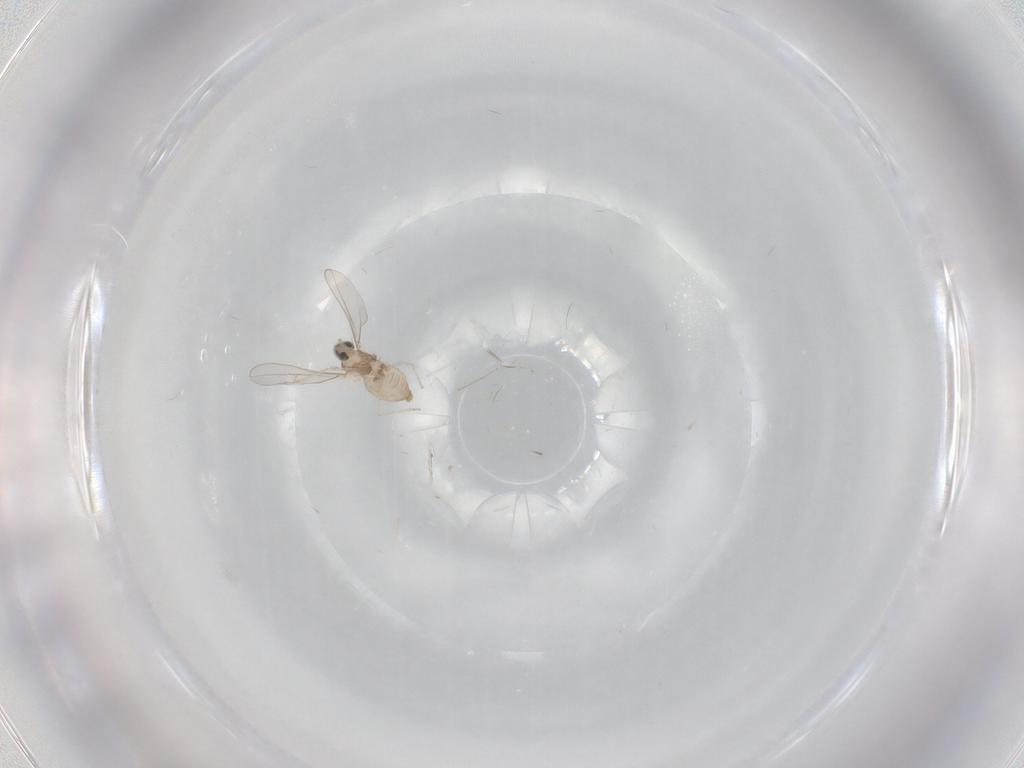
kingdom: Animalia
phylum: Arthropoda
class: Insecta
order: Diptera
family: Cecidomyiidae
